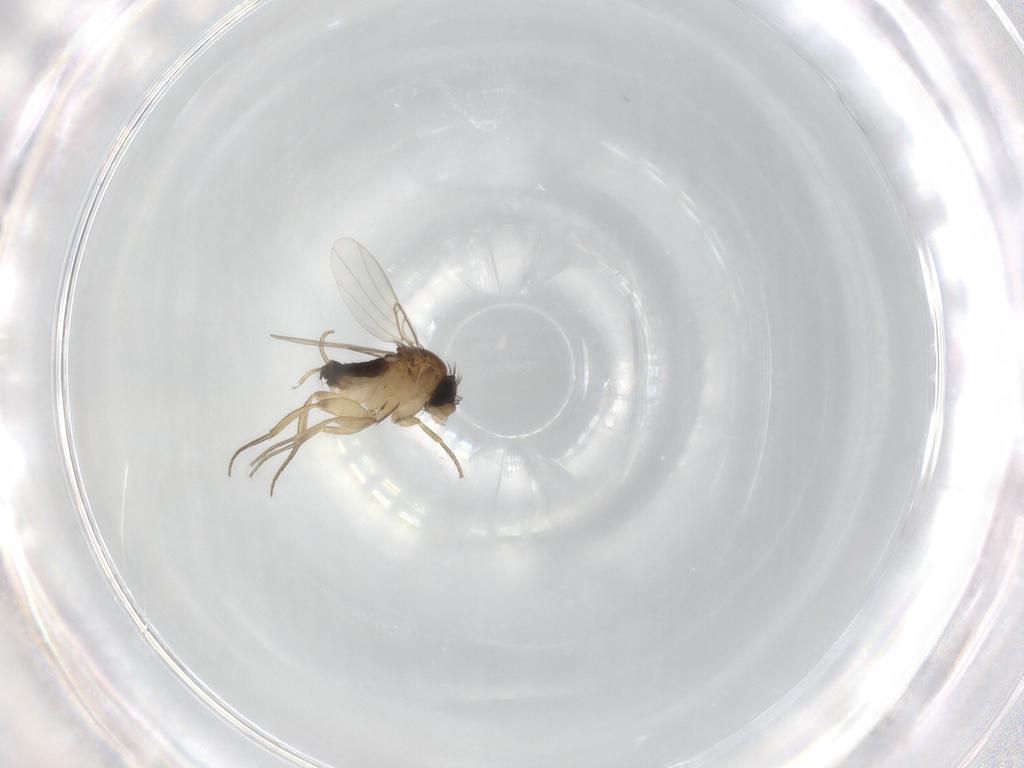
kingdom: Animalia
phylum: Arthropoda
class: Insecta
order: Diptera
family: Phoridae
